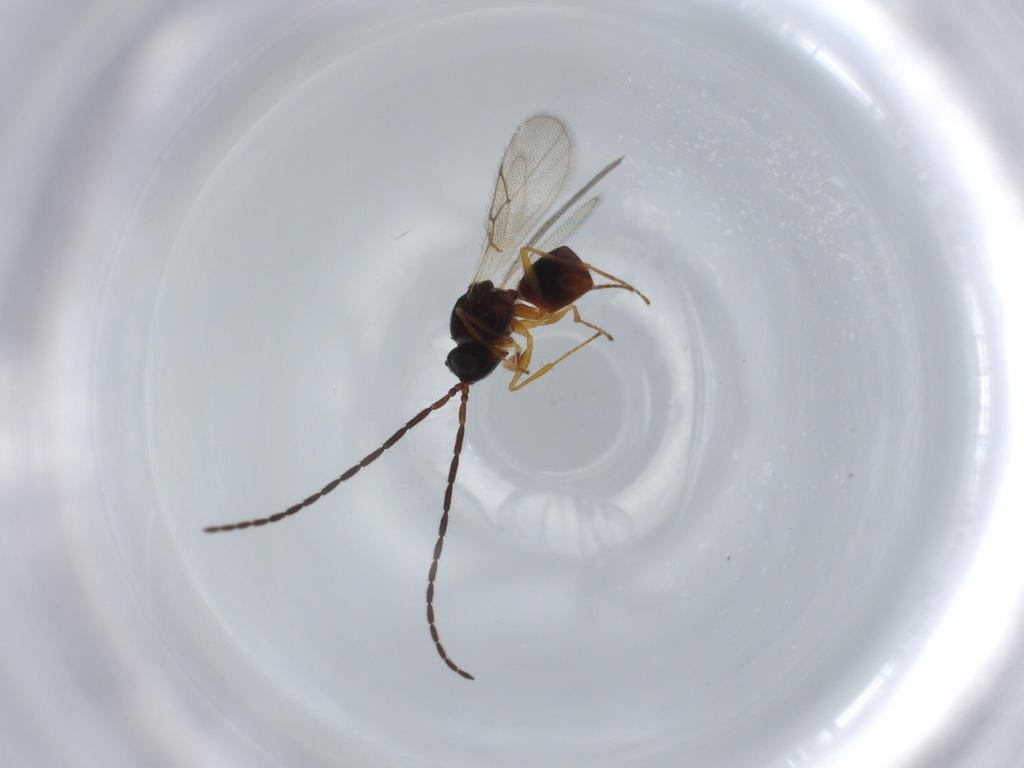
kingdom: Animalia
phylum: Arthropoda
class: Insecta
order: Hymenoptera
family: Figitidae
